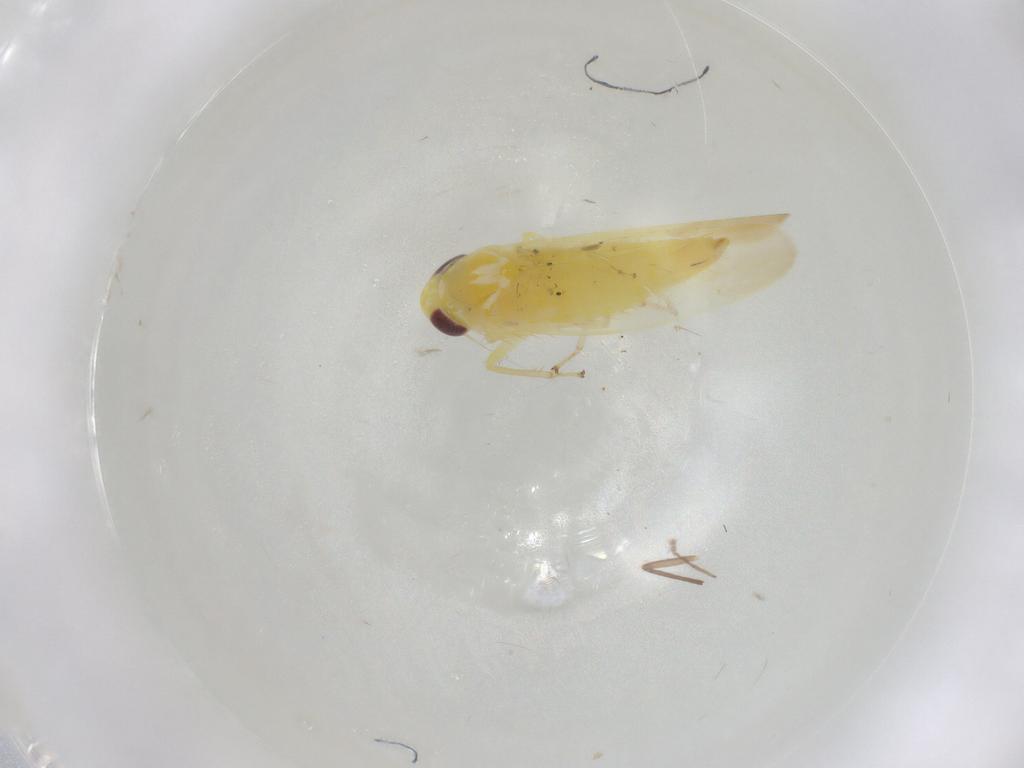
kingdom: Animalia
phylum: Arthropoda
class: Insecta
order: Hemiptera
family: Cicadellidae
